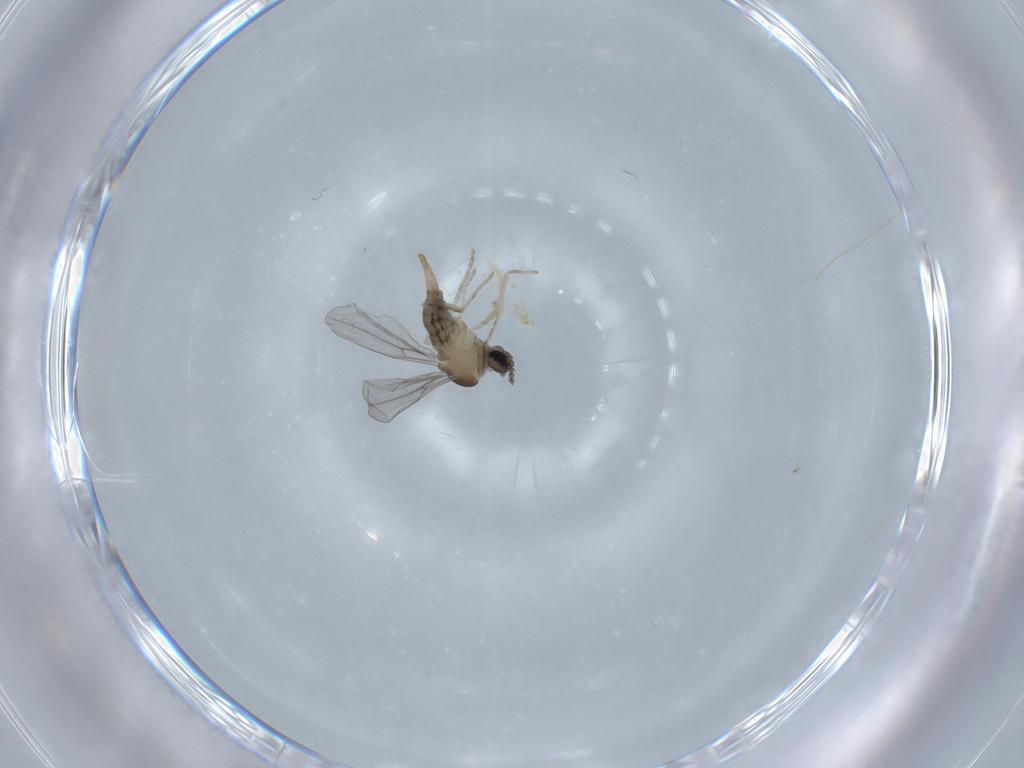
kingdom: Animalia
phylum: Arthropoda
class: Insecta
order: Diptera
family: Cecidomyiidae
